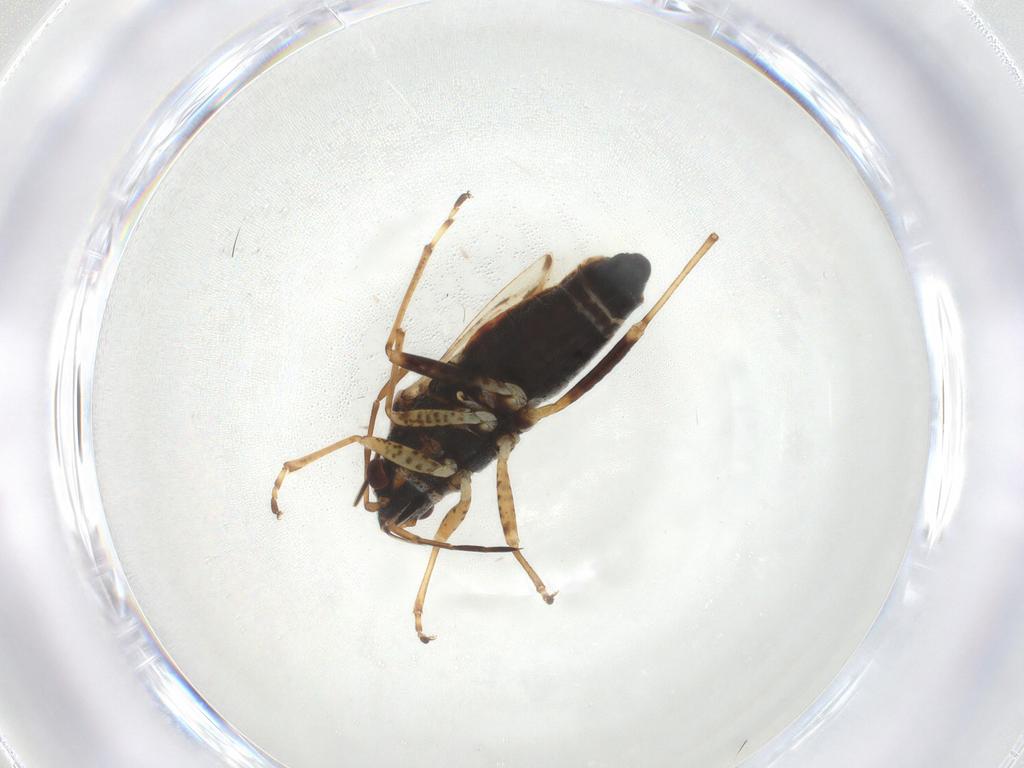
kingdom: Animalia
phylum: Arthropoda
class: Insecta
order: Hemiptera
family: Lygaeidae
